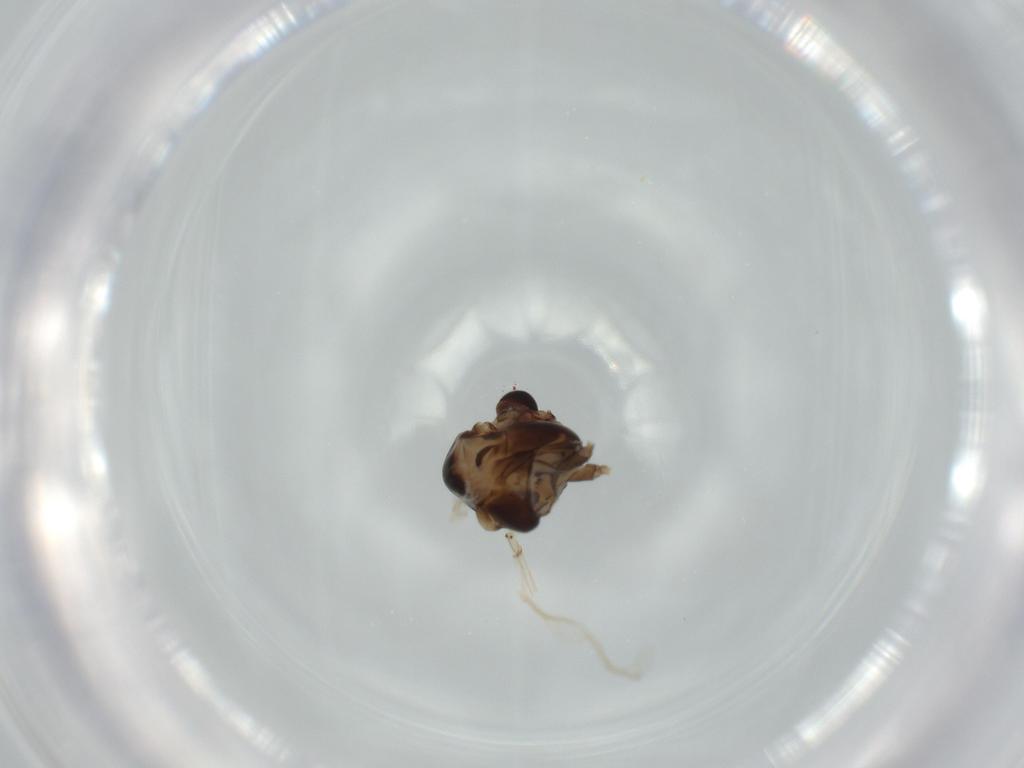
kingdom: Animalia
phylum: Arthropoda
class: Insecta
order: Diptera
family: Chironomidae
